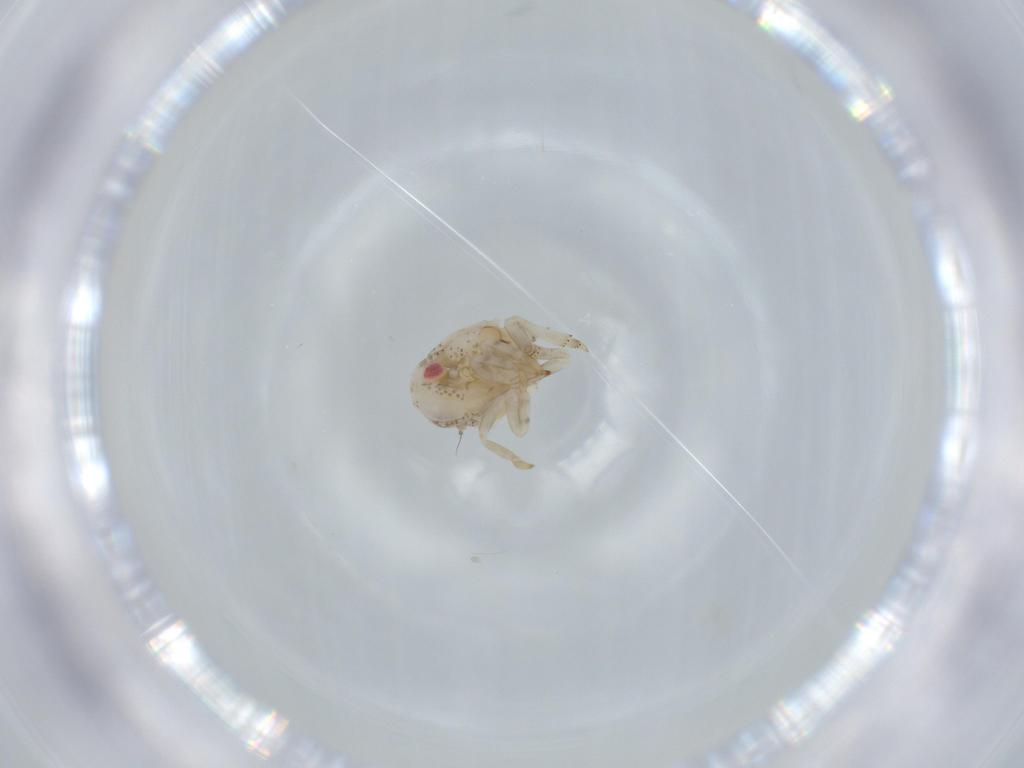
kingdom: Animalia
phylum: Arthropoda
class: Insecta
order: Hemiptera
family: Acanaloniidae
